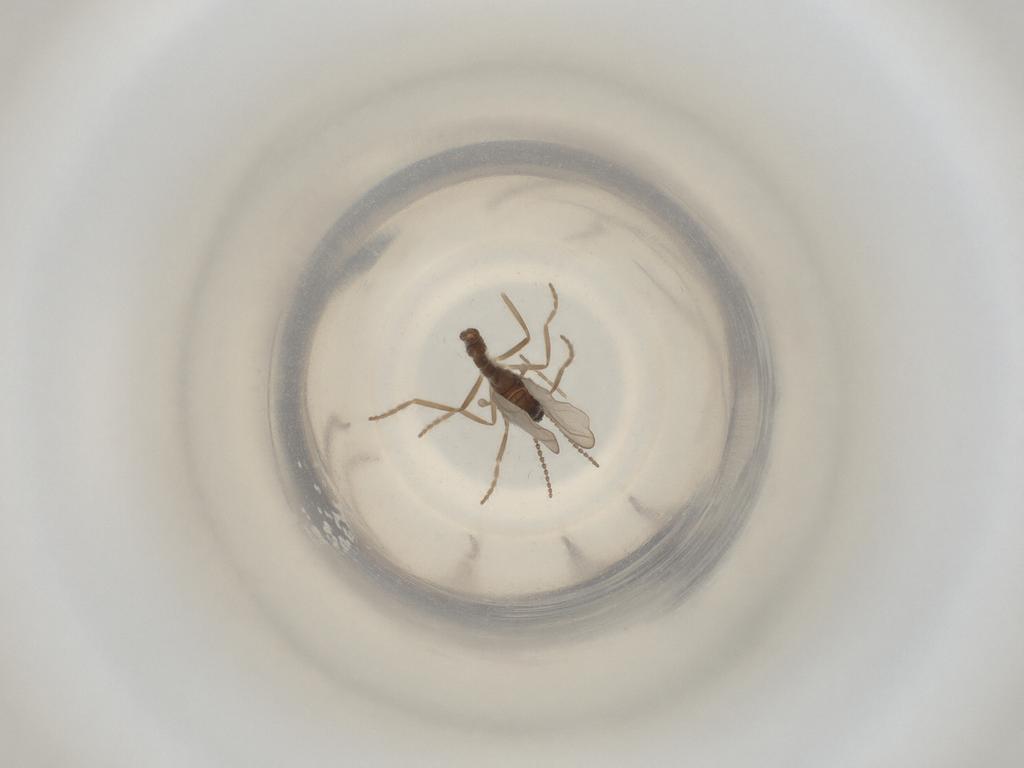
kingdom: Animalia
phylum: Arthropoda
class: Insecta
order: Diptera
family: Cecidomyiidae
